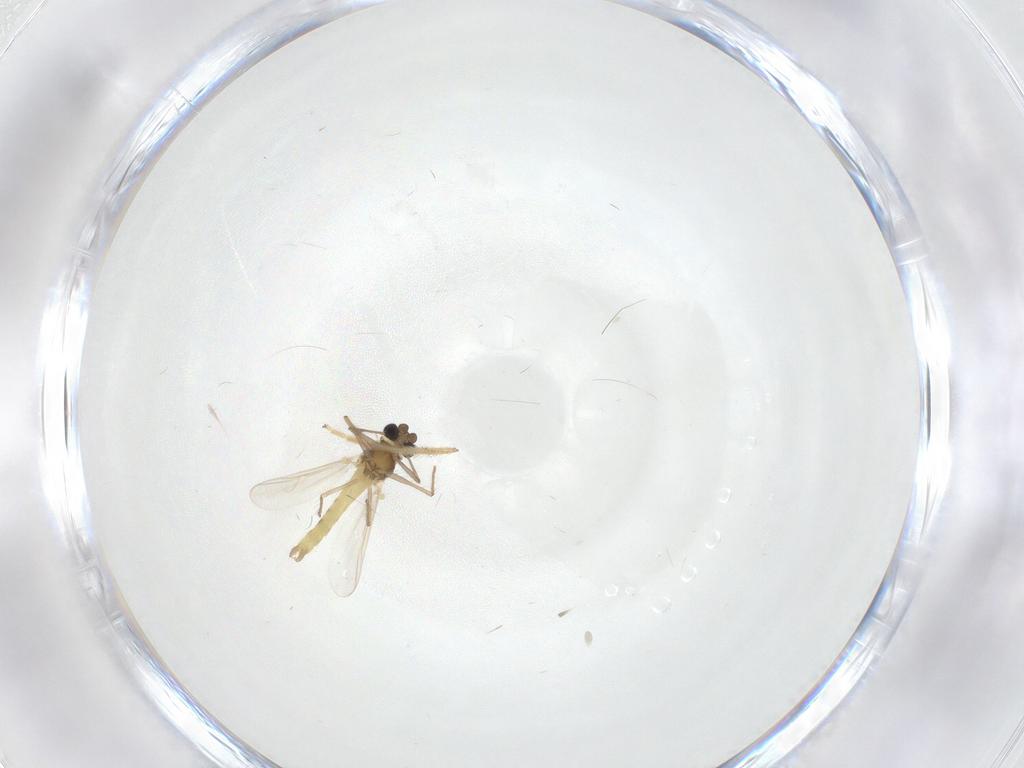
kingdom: Animalia
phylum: Arthropoda
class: Insecta
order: Diptera
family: Chironomidae
